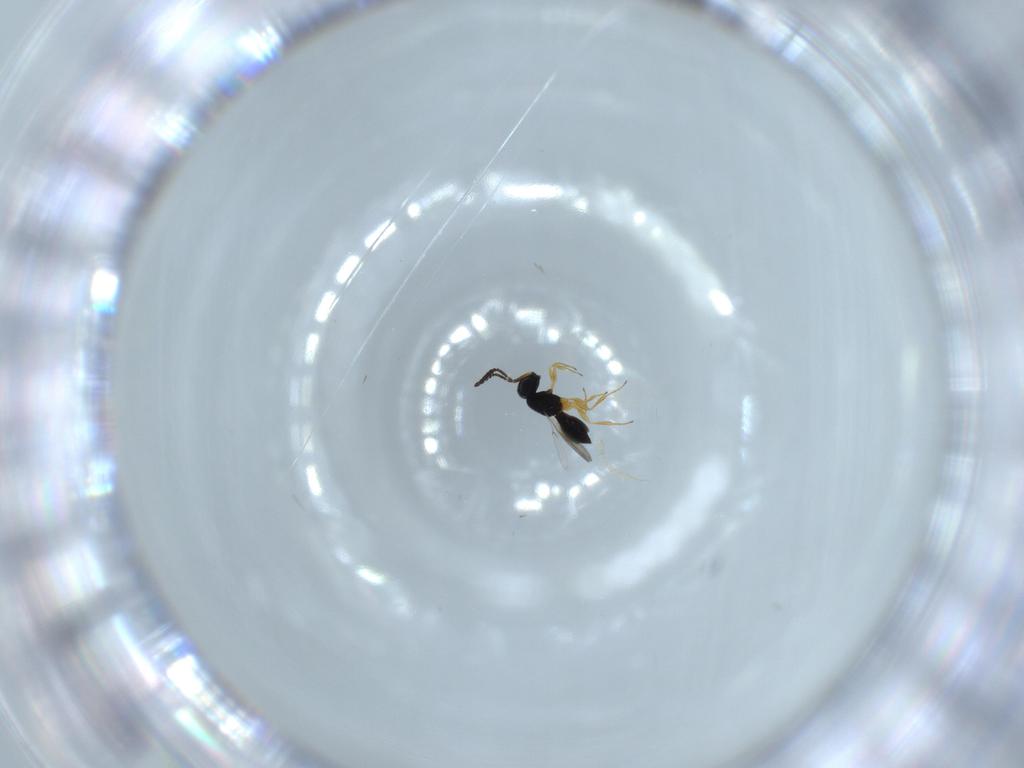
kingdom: Animalia
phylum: Arthropoda
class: Insecta
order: Hymenoptera
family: Scelionidae
